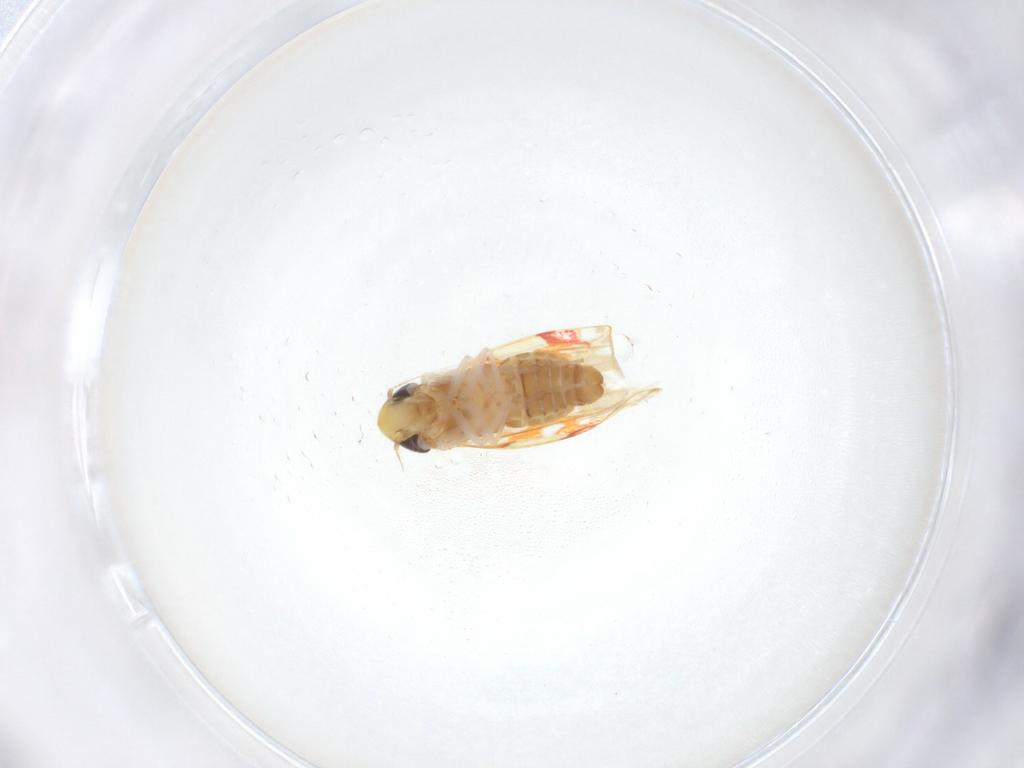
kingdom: Animalia
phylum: Arthropoda
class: Insecta
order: Hemiptera
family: Cicadellidae
